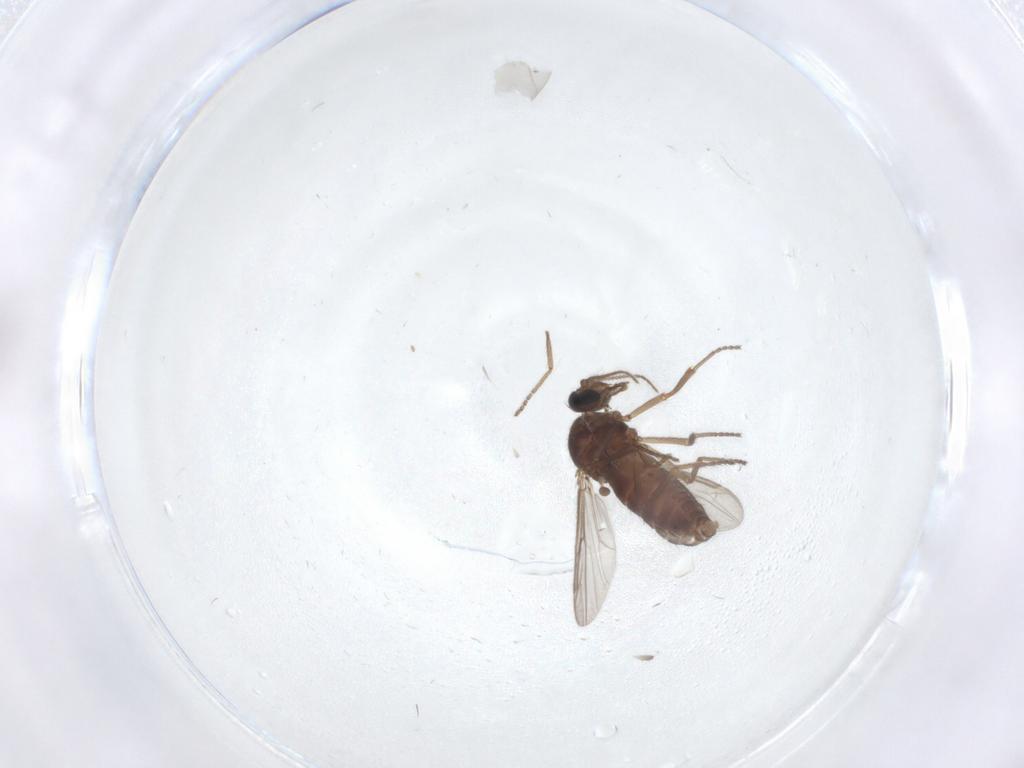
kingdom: Animalia
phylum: Arthropoda
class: Insecta
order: Diptera
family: Ceratopogonidae
